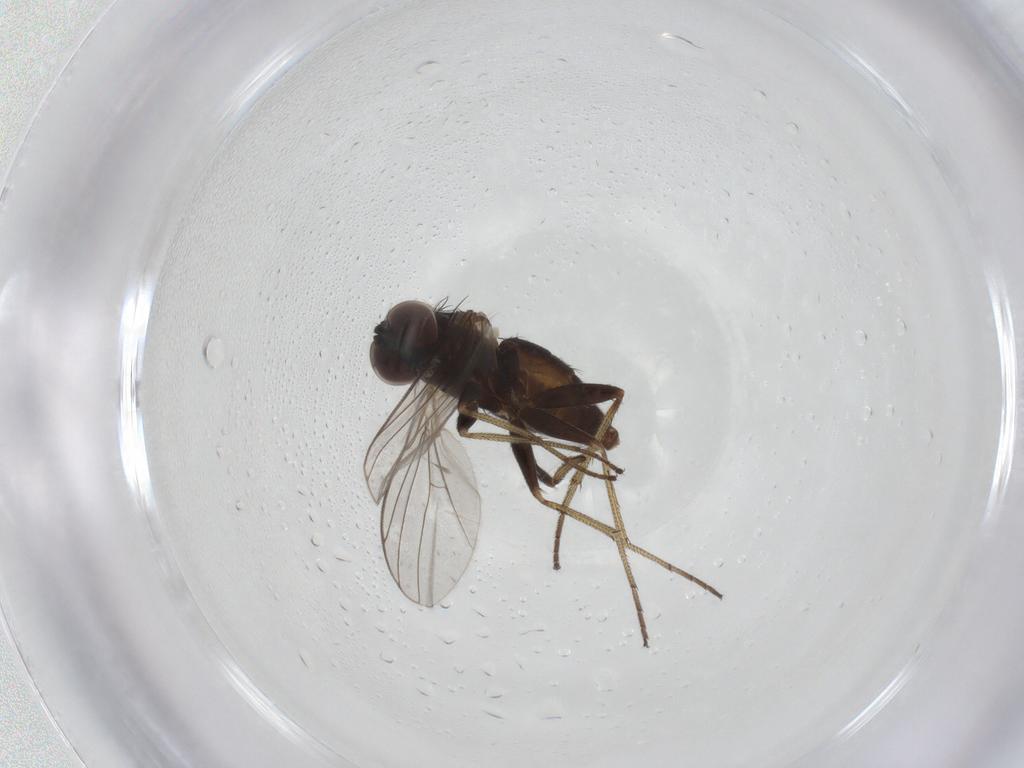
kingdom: Animalia
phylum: Arthropoda
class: Insecta
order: Diptera
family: Dolichopodidae
